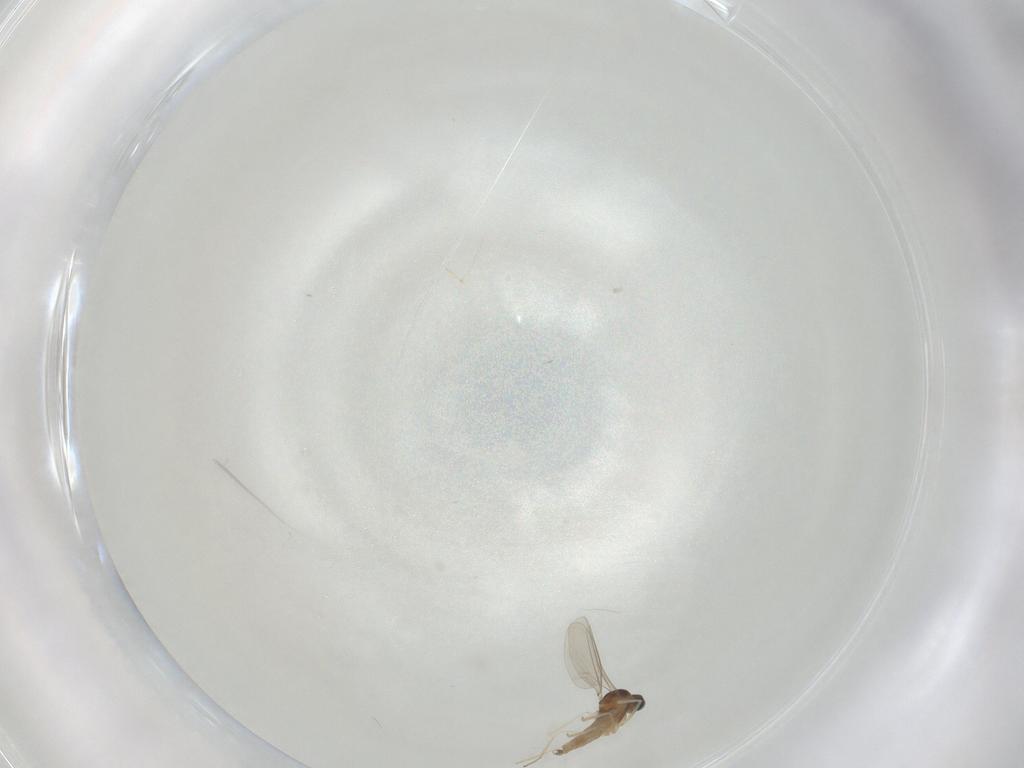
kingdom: Animalia
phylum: Arthropoda
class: Insecta
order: Diptera
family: Cecidomyiidae
